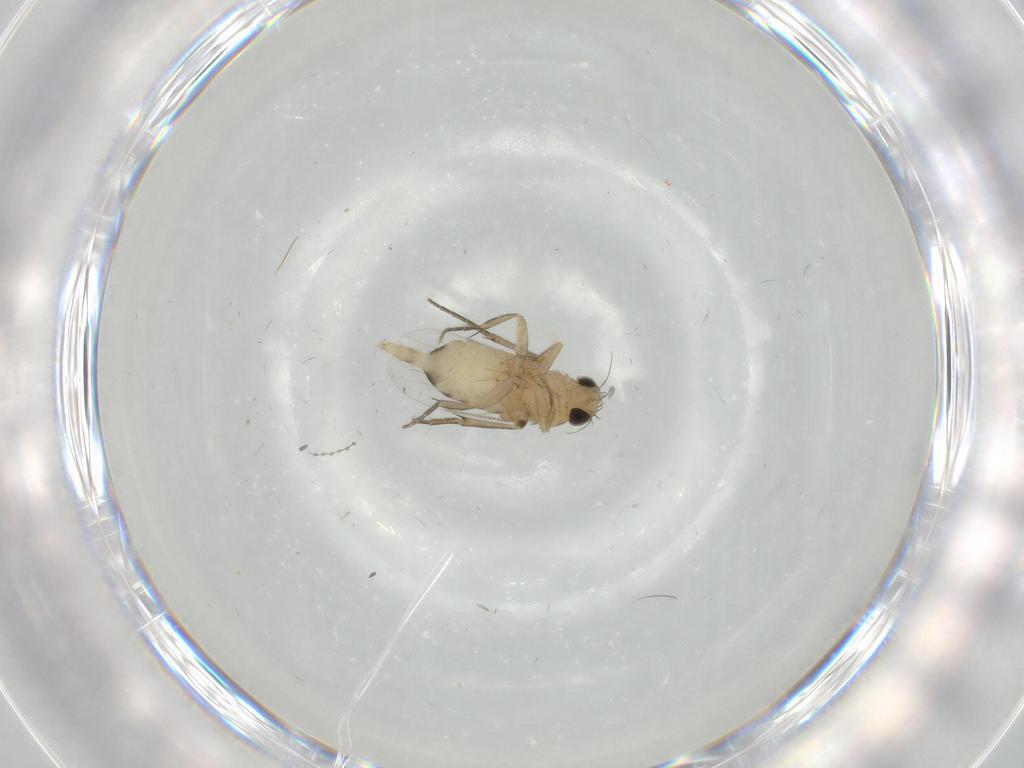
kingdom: Animalia
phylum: Arthropoda
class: Insecta
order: Diptera
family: Phoridae
